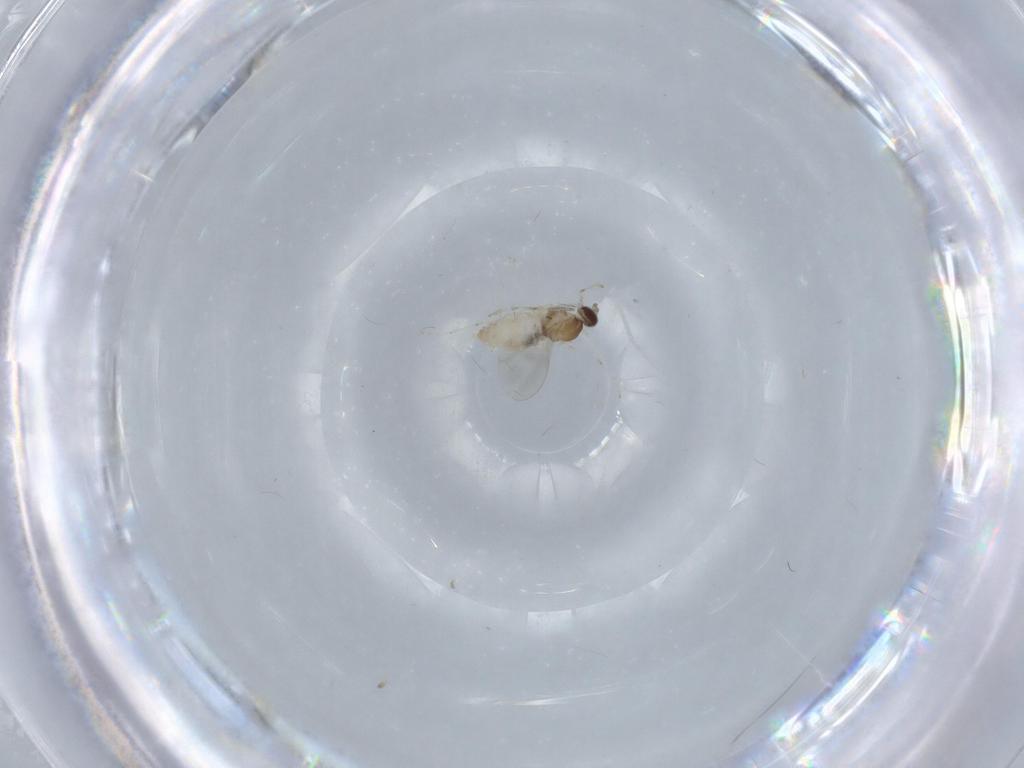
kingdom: Animalia
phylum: Arthropoda
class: Insecta
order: Diptera
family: Cecidomyiidae
